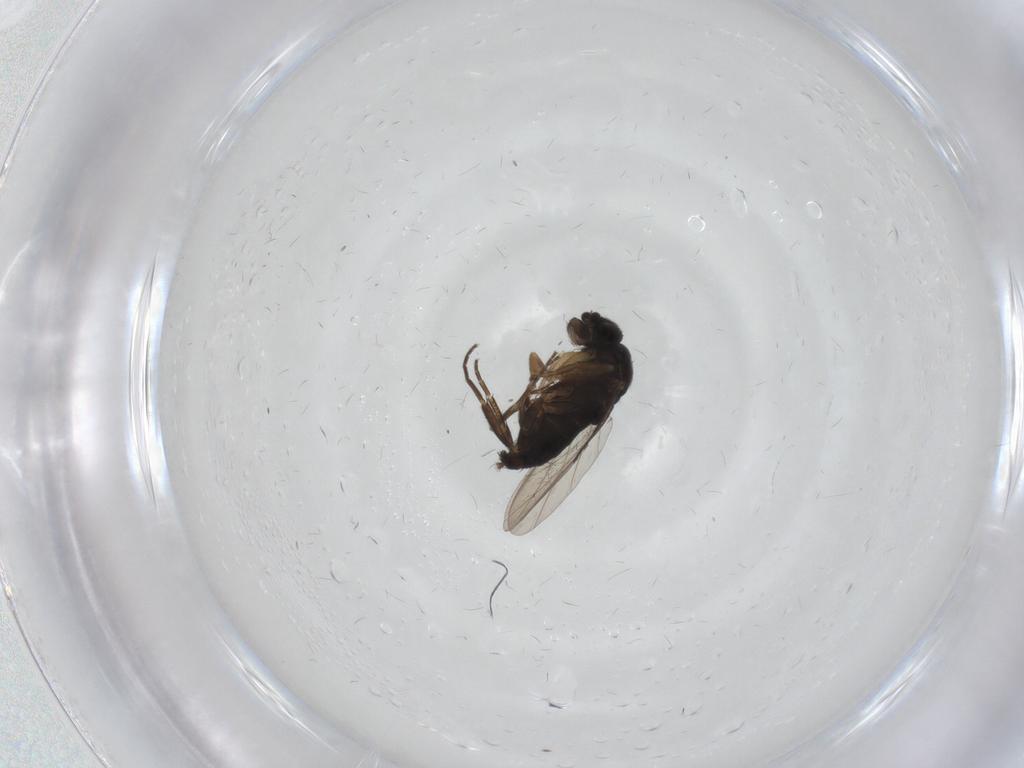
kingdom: Animalia
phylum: Arthropoda
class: Insecta
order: Diptera
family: Phoridae
